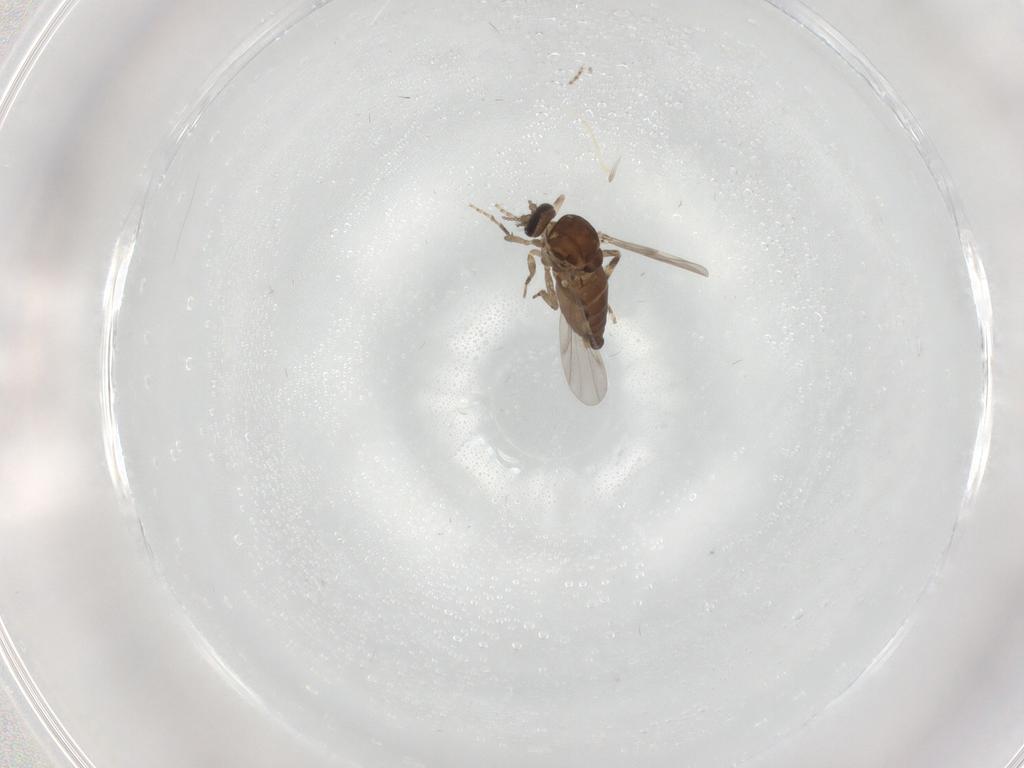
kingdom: Animalia
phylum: Arthropoda
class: Insecta
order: Diptera
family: Ceratopogonidae
